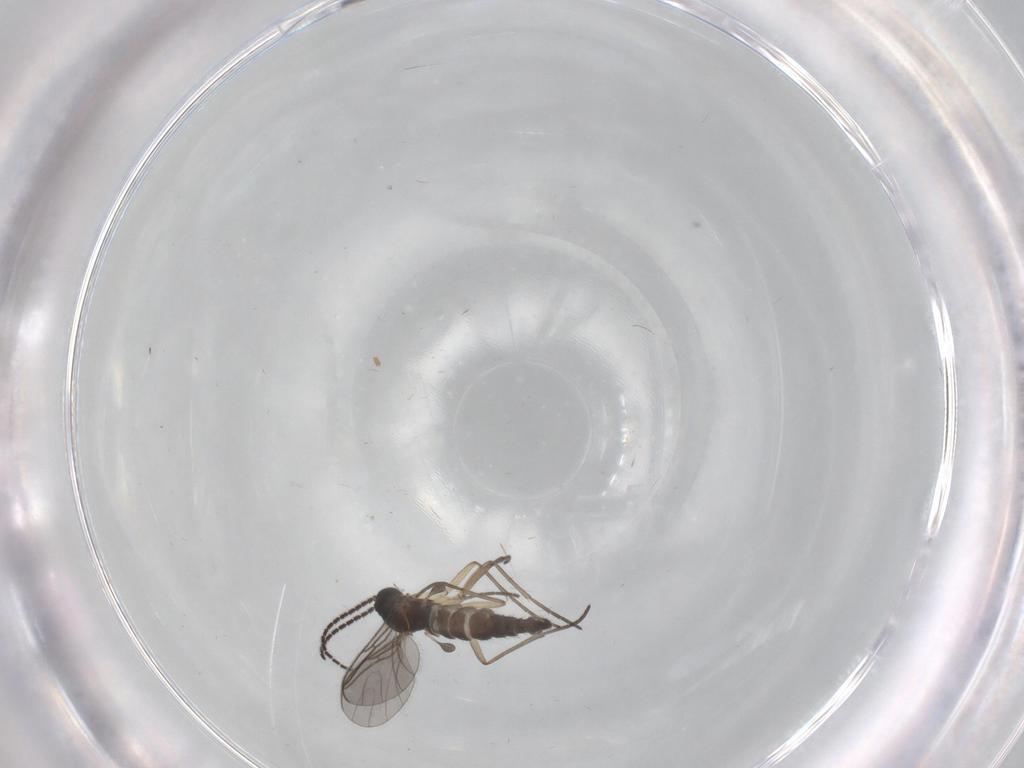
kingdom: Animalia
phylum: Arthropoda
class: Insecta
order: Diptera
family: Sciaridae
